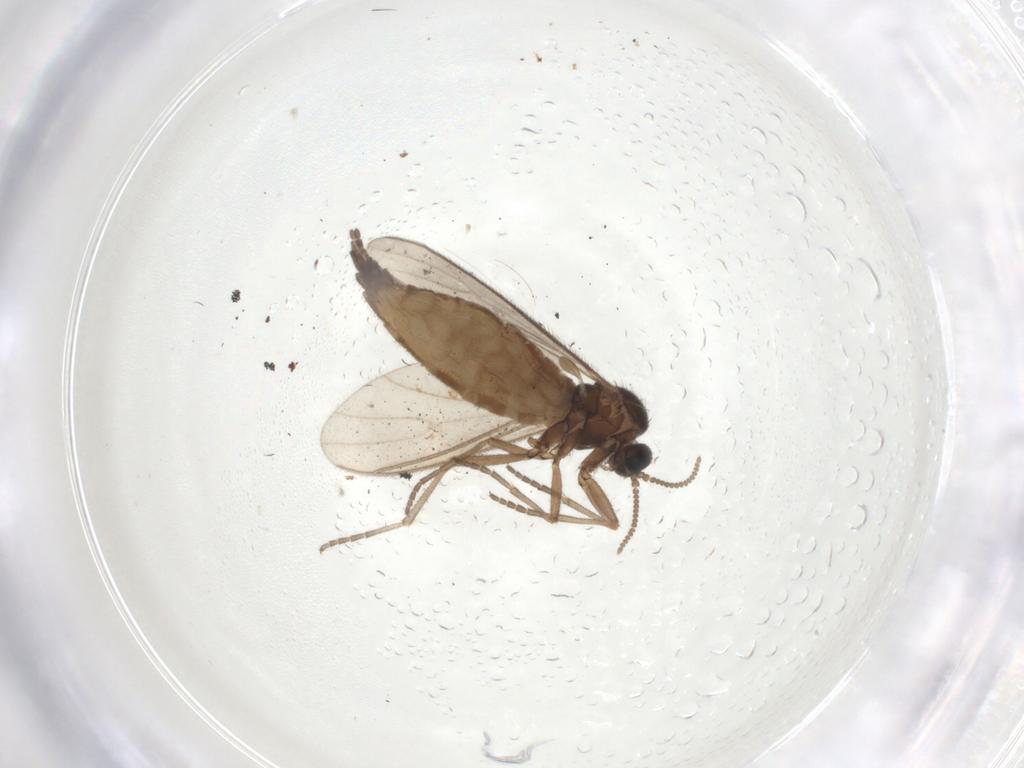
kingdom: Animalia
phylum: Arthropoda
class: Insecta
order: Diptera
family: Sciaridae
